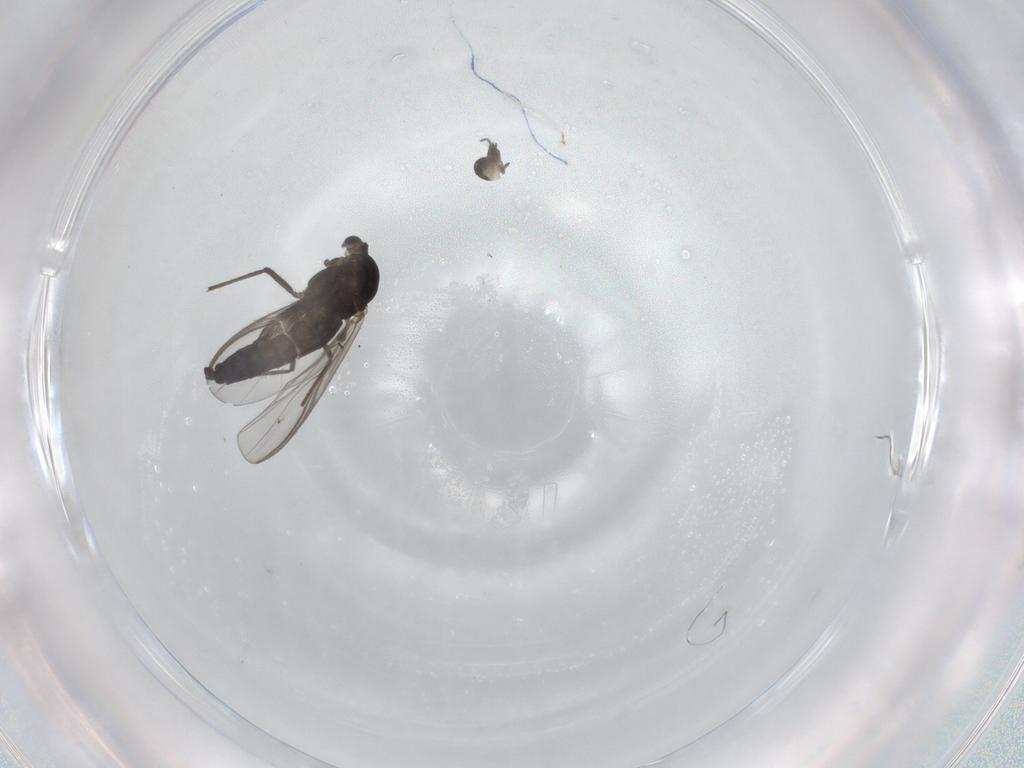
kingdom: Animalia
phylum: Arthropoda
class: Insecta
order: Diptera
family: Chironomidae
